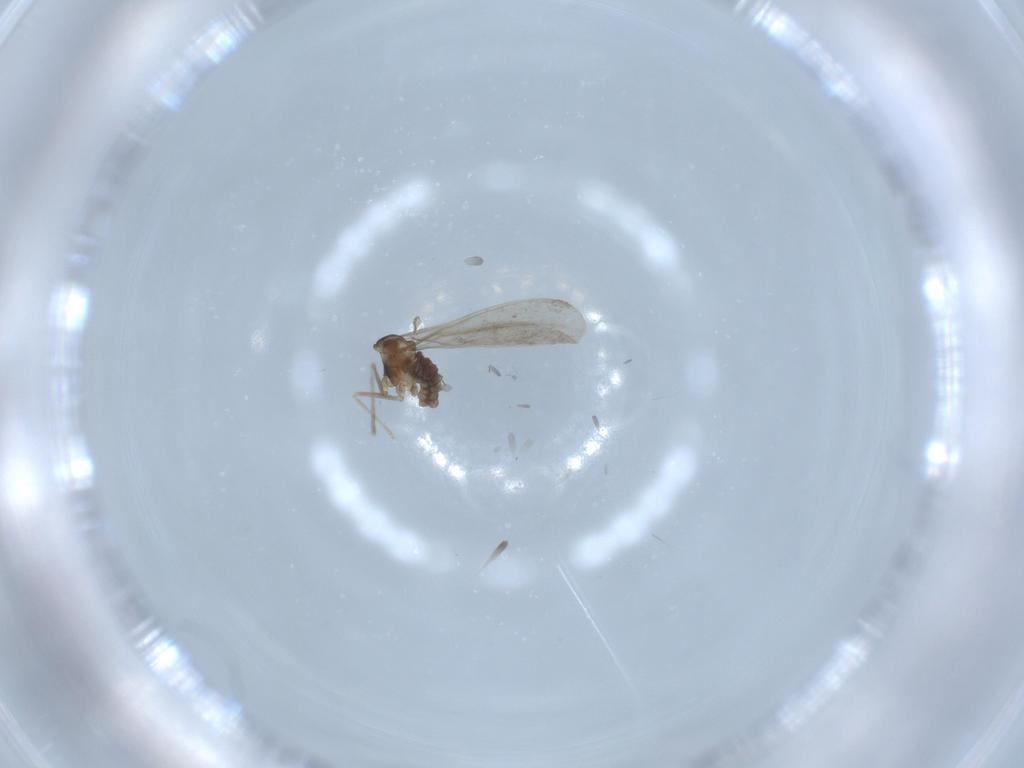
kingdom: Animalia
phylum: Arthropoda
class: Insecta
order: Diptera
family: Cecidomyiidae
